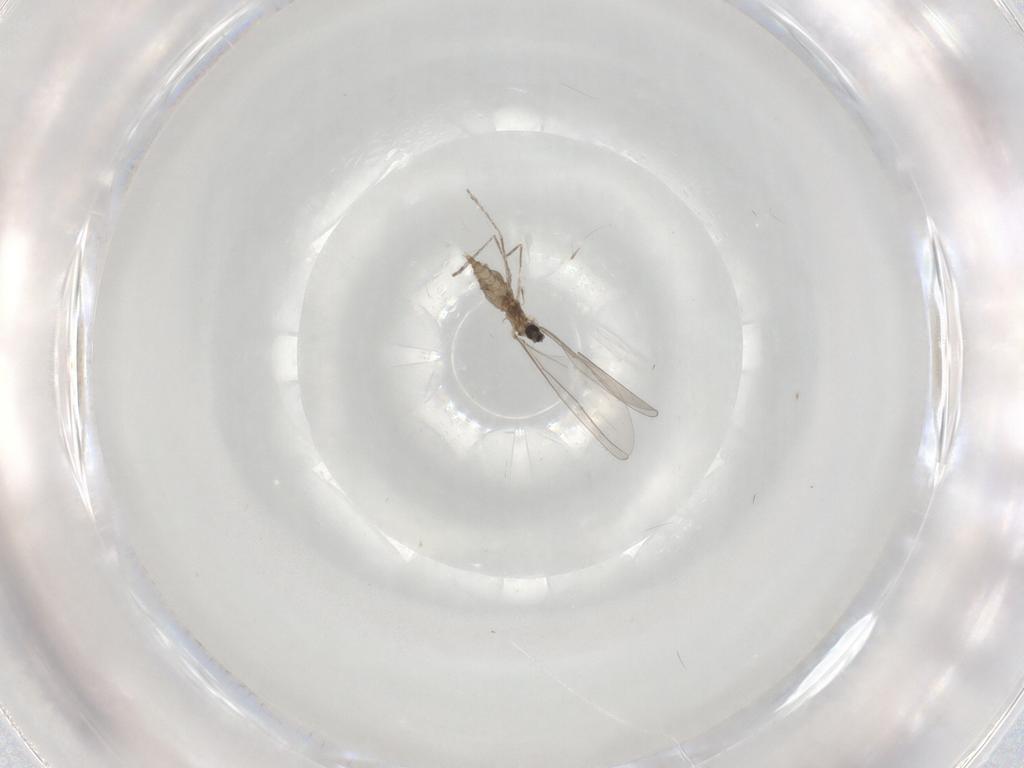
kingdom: Animalia
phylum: Arthropoda
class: Insecta
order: Diptera
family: Cecidomyiidae
